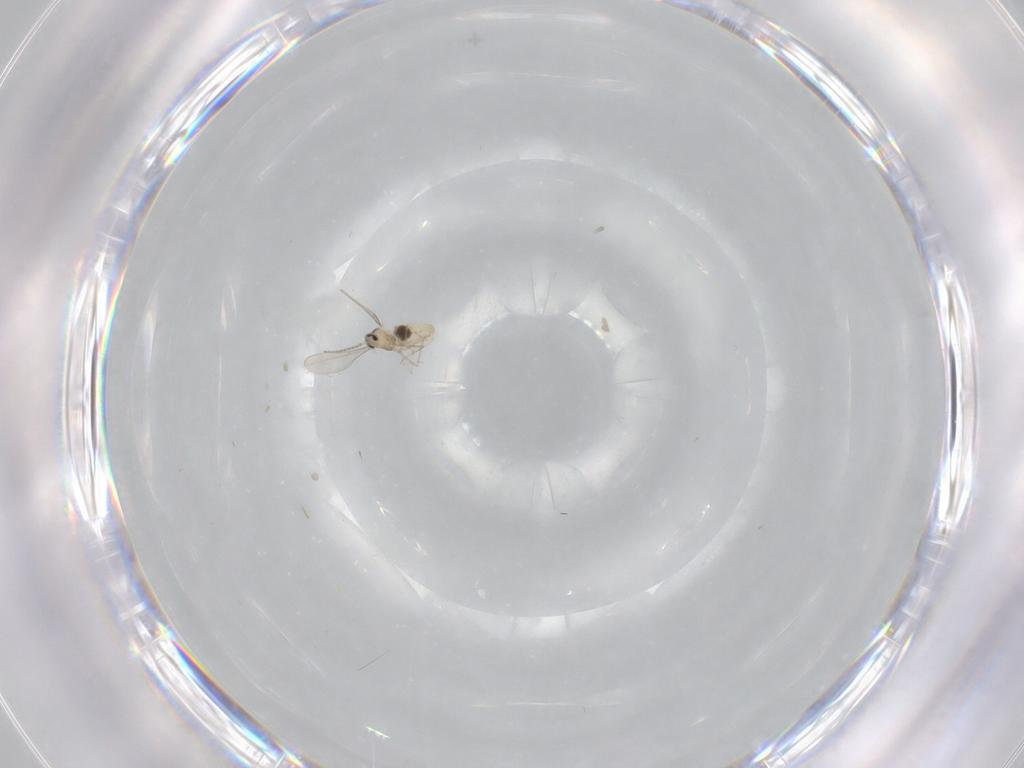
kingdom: Animalia
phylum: Arthropoda
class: Insecta
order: Diptera
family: Cecidomyiidae
